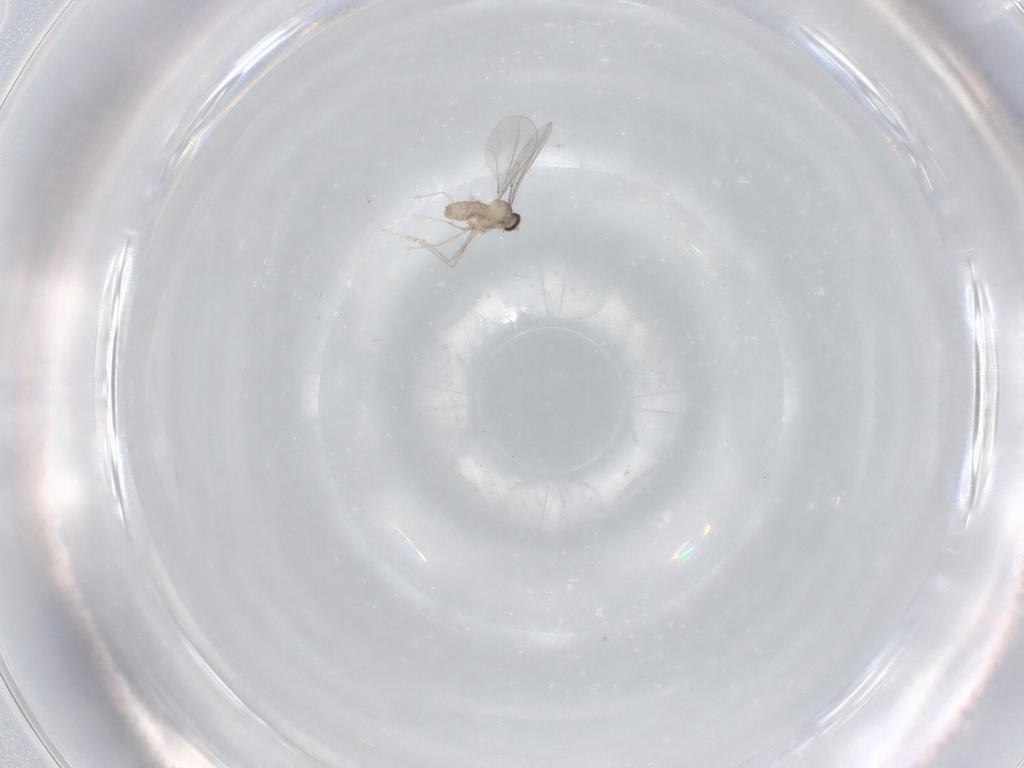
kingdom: Animalia
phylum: Arthropoda
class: Insecta
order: Diptera
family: Cecidomyiidae
